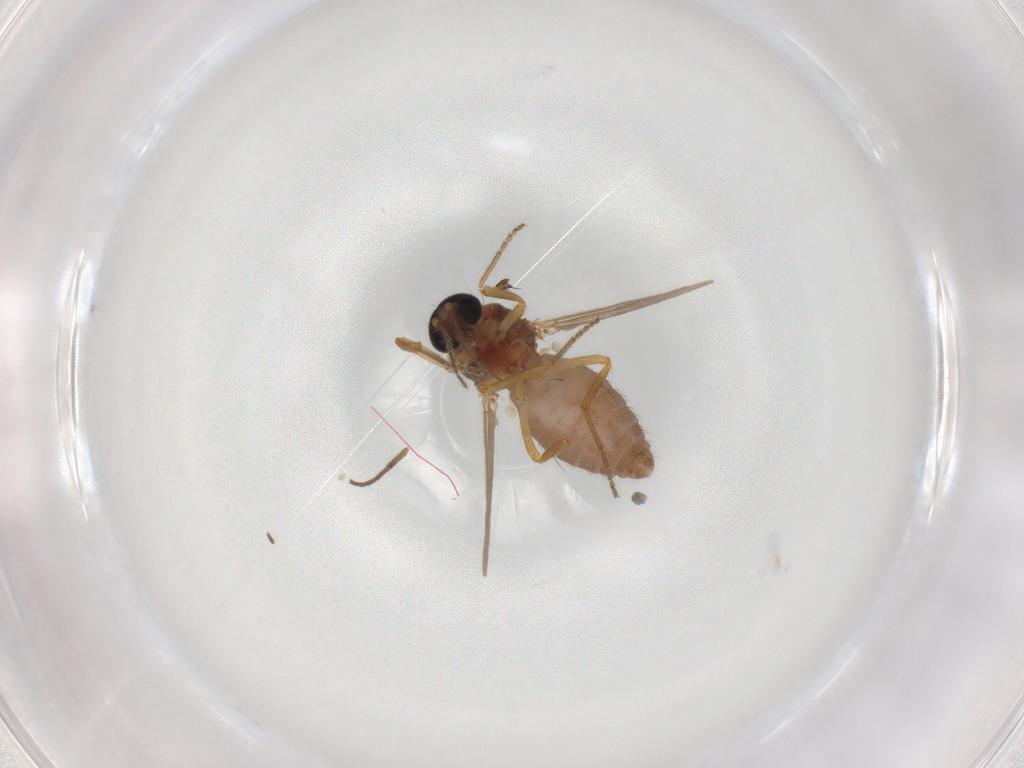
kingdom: Animalia
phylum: Arthropoda
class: Insecta
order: Diptera
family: Ceratopogonidae
